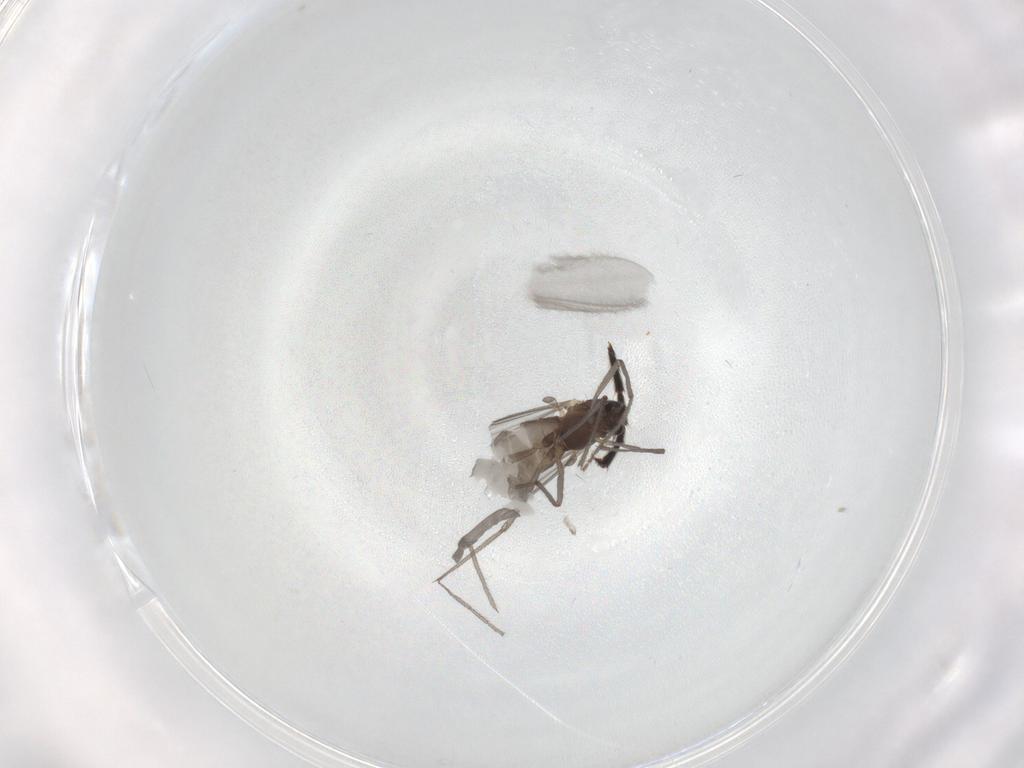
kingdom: Animalia
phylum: Arthropoda
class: Insecta
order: Diptera
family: Chironomidae
